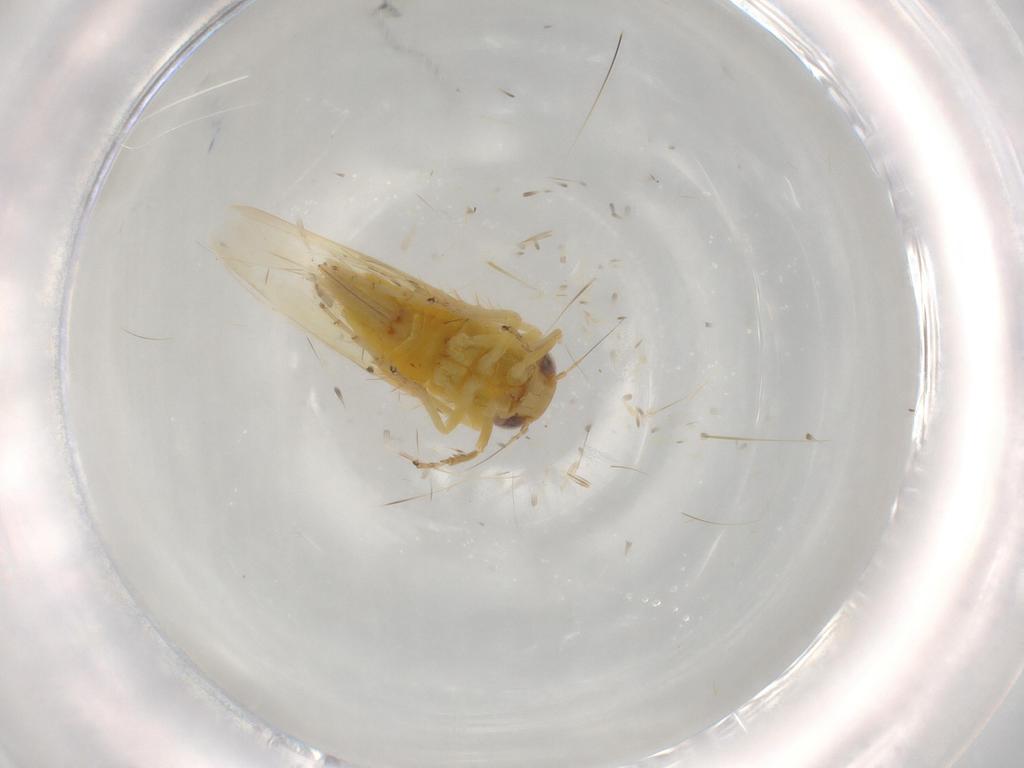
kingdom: Animalia
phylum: Arthropoda
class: Insecta
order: Hemiptera
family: Cicadellidae
